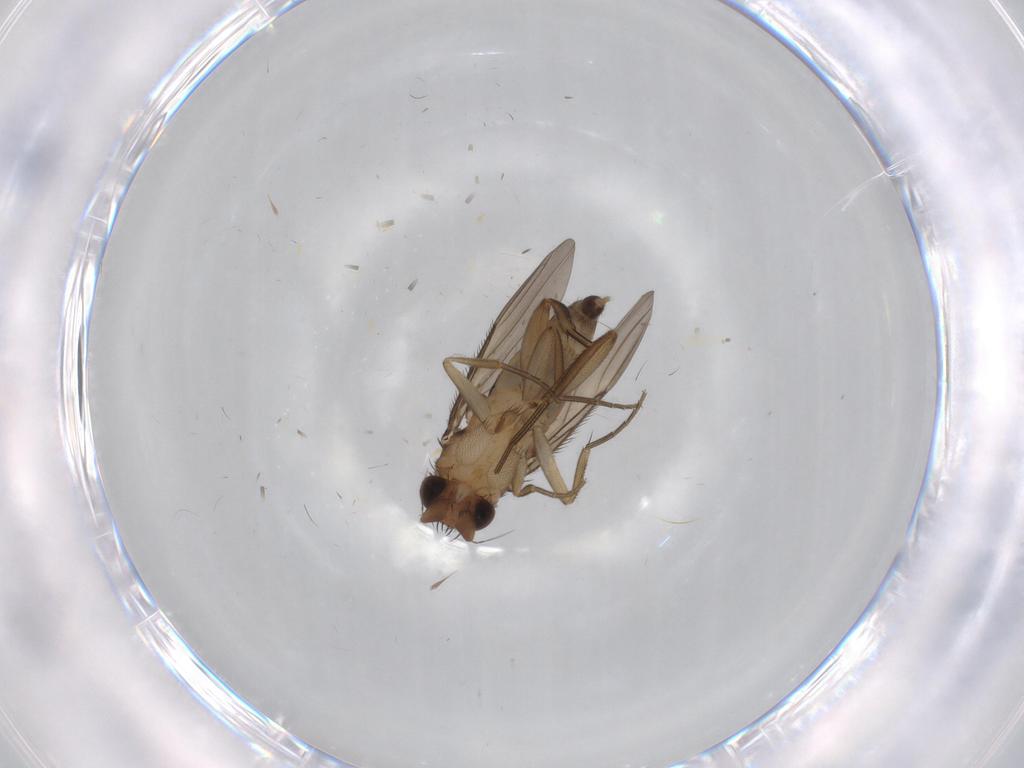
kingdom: Animalia
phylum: Arthropoda
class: Insecta
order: Diptera
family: Phoridae
